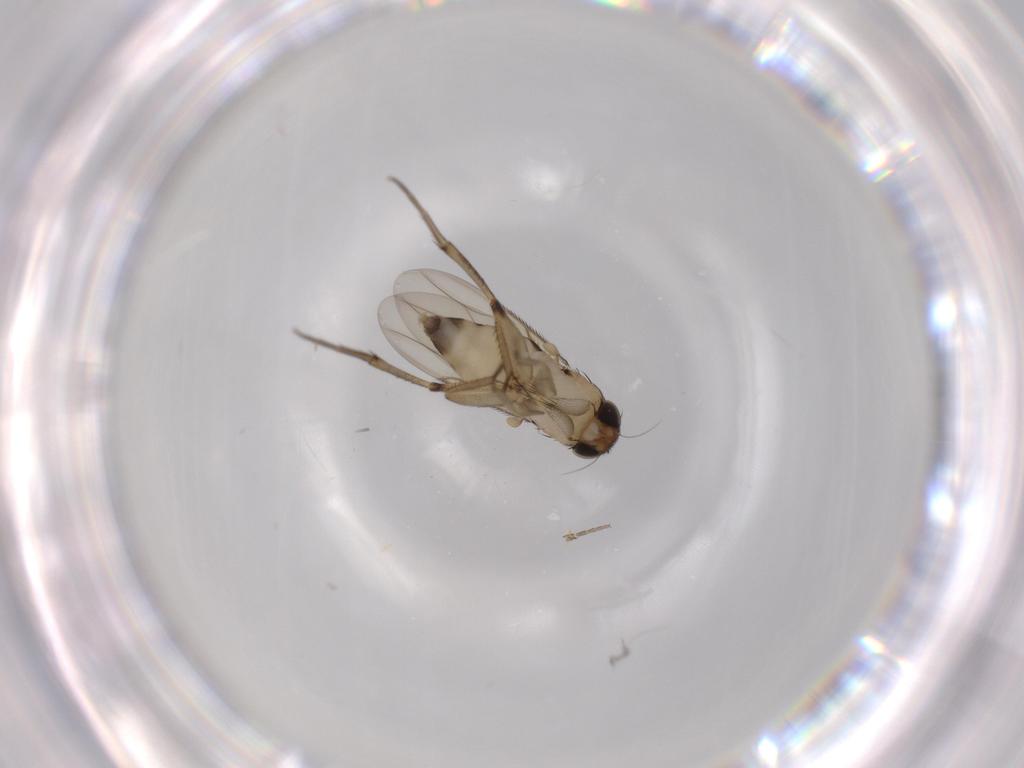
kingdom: Animalia
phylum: Arthropoda
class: Insecta
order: Diptera
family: Phoridae
